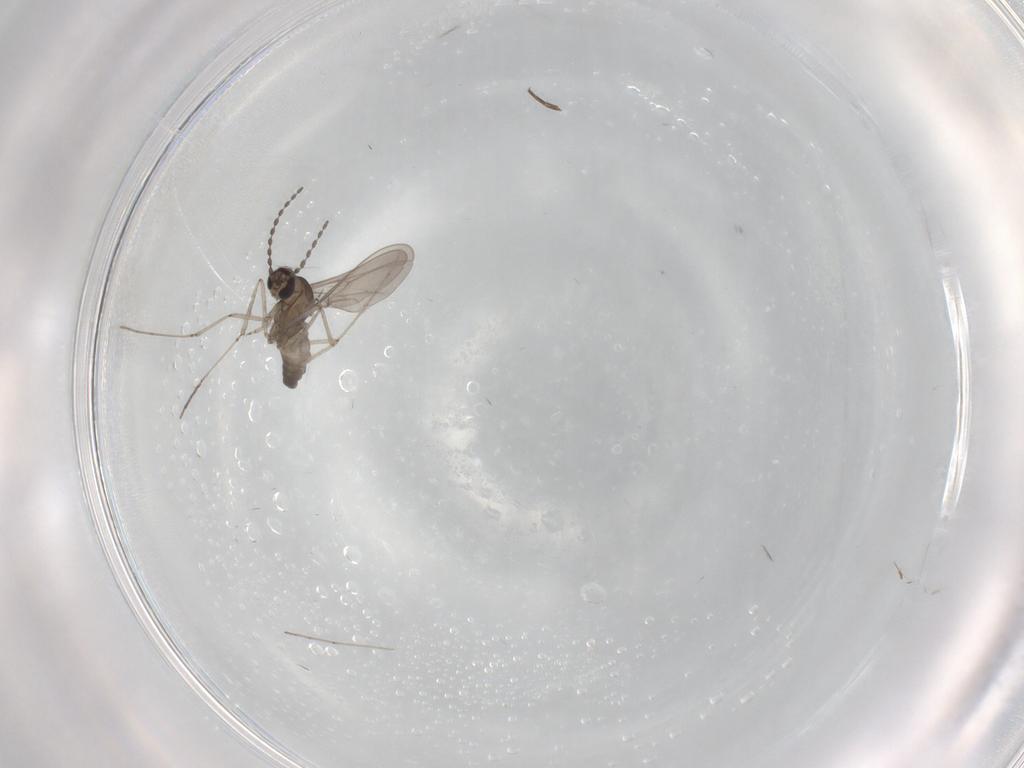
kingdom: Animalia
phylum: Arthropoda
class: Insecta
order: Diptera
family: Cecidomyiidae
